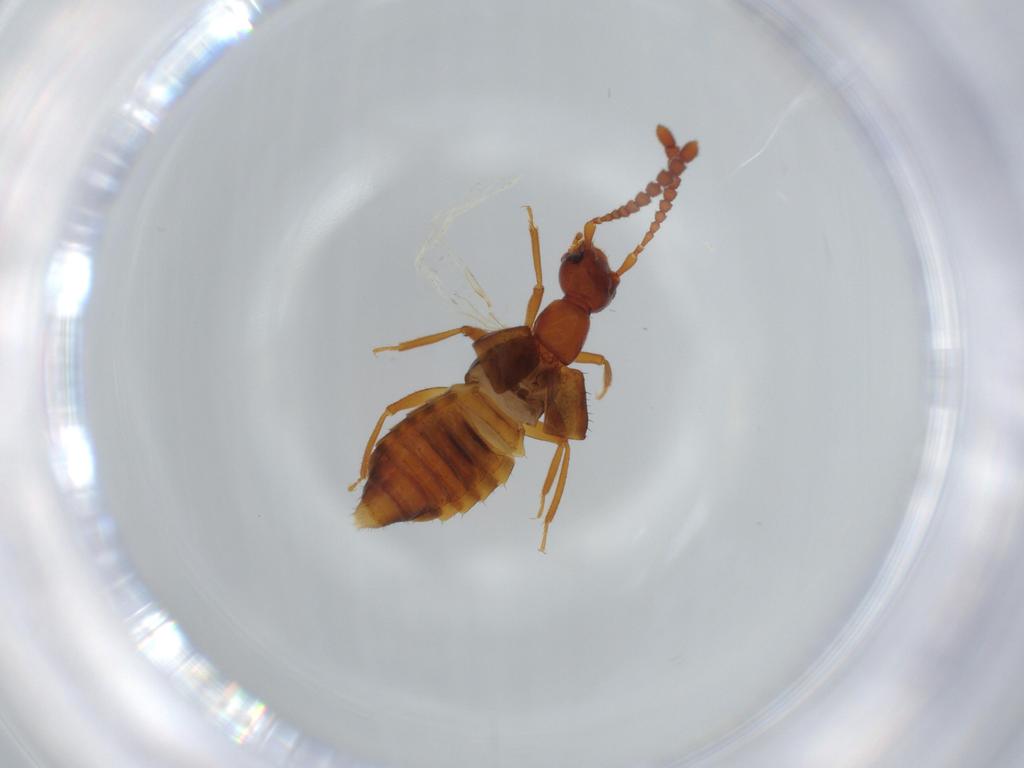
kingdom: Animalia
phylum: Arthropoda
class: Insecta
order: Coleoptera
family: Staphylinidae
